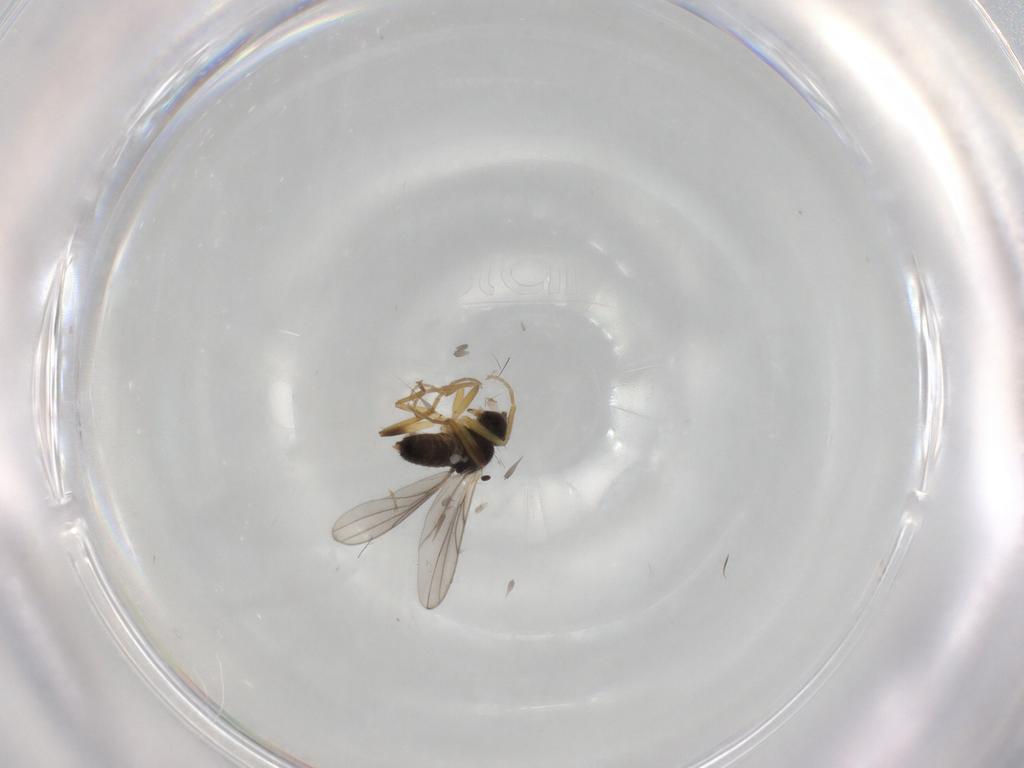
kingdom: Animalia
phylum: Arthropoda
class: Insecta
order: Diptera
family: Hybotidae
